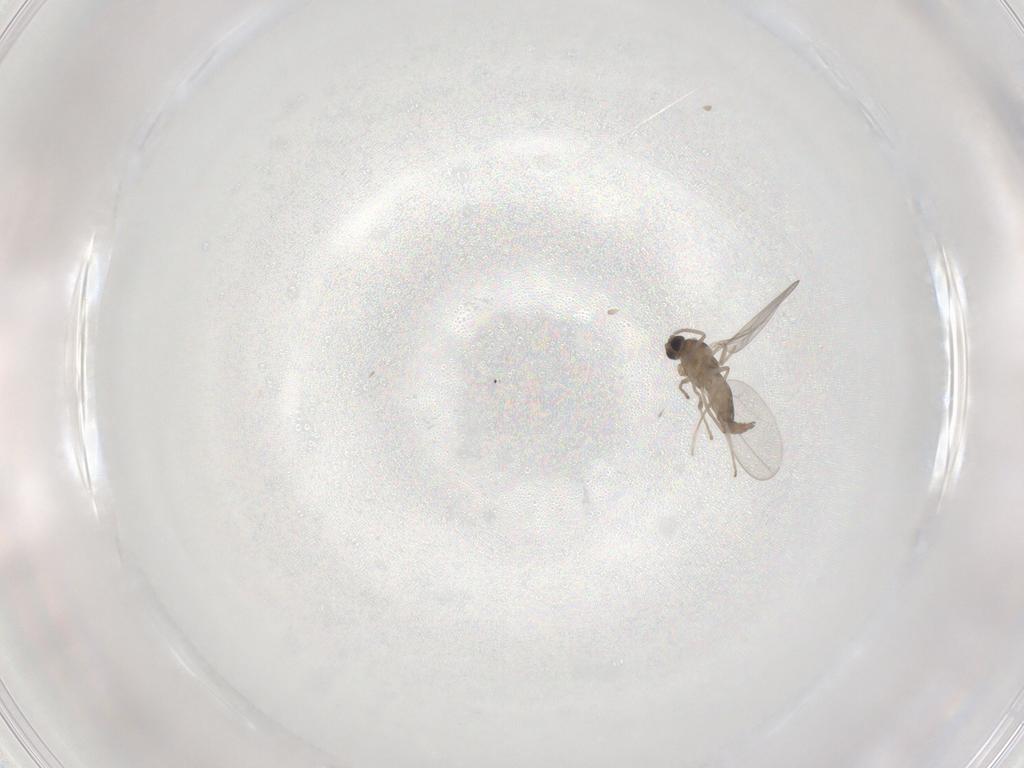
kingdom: Animalia
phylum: Arthropoda
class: Insecta
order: Diptera
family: Cecidomyiidae
